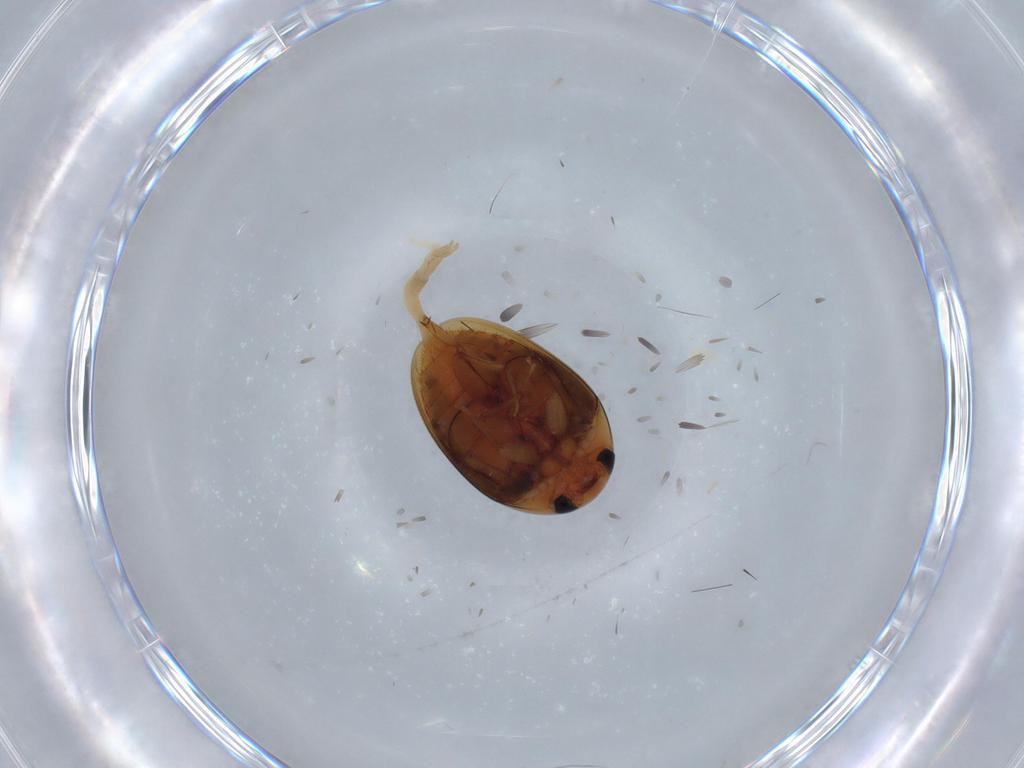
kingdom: Animalia
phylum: Arthropoda
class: Insecta
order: Coleoptera
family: Phalacridae
